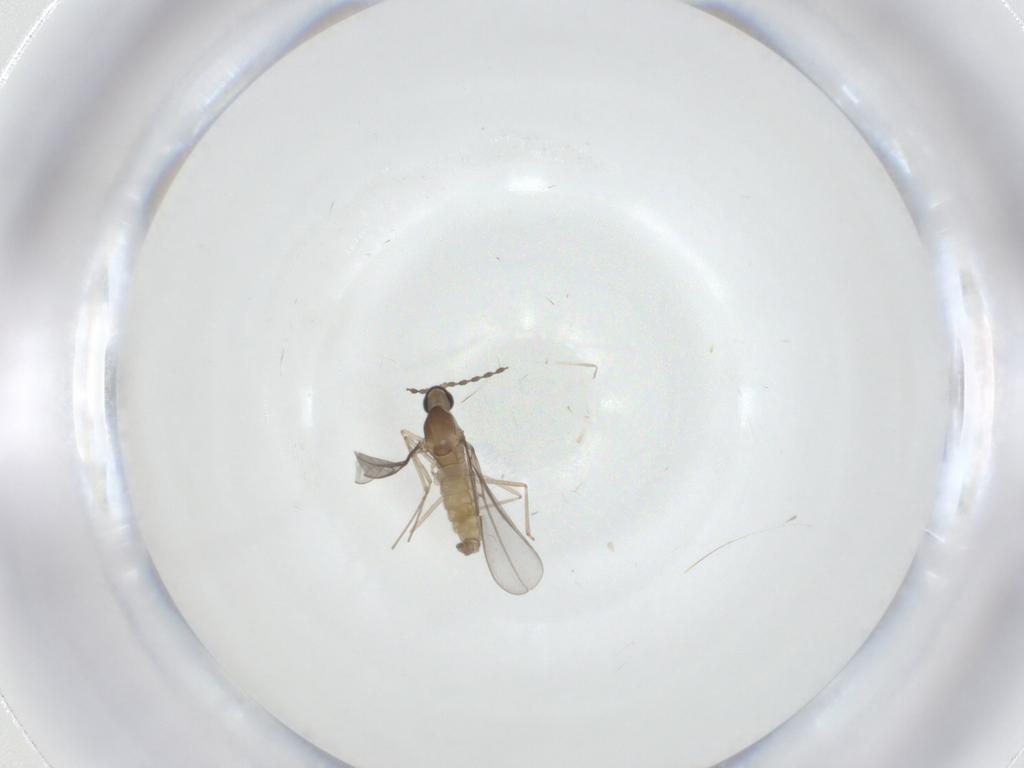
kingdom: Animalia
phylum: Arthropoda
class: Insecta
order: Diptera
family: Cecidomyiidae
